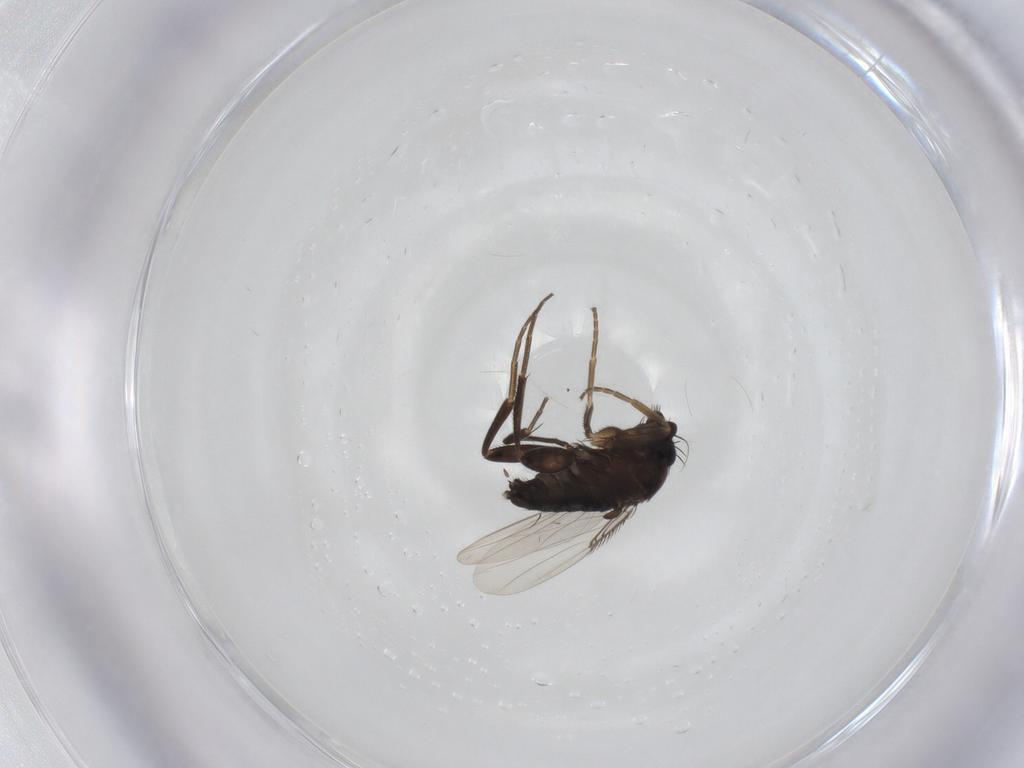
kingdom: Animalia
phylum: Arthropoda
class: Insecta
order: Diptera
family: Phoridae
